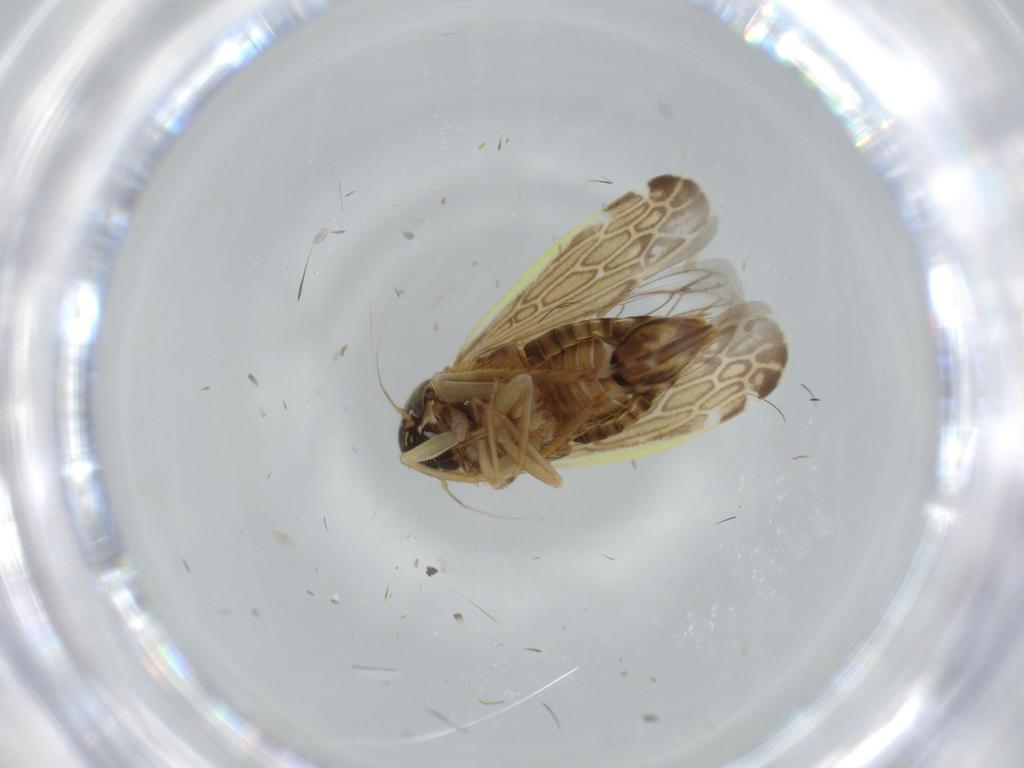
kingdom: Animalia
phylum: Arthropoda
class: Insecta
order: Hemiptera
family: Cicadellidae
